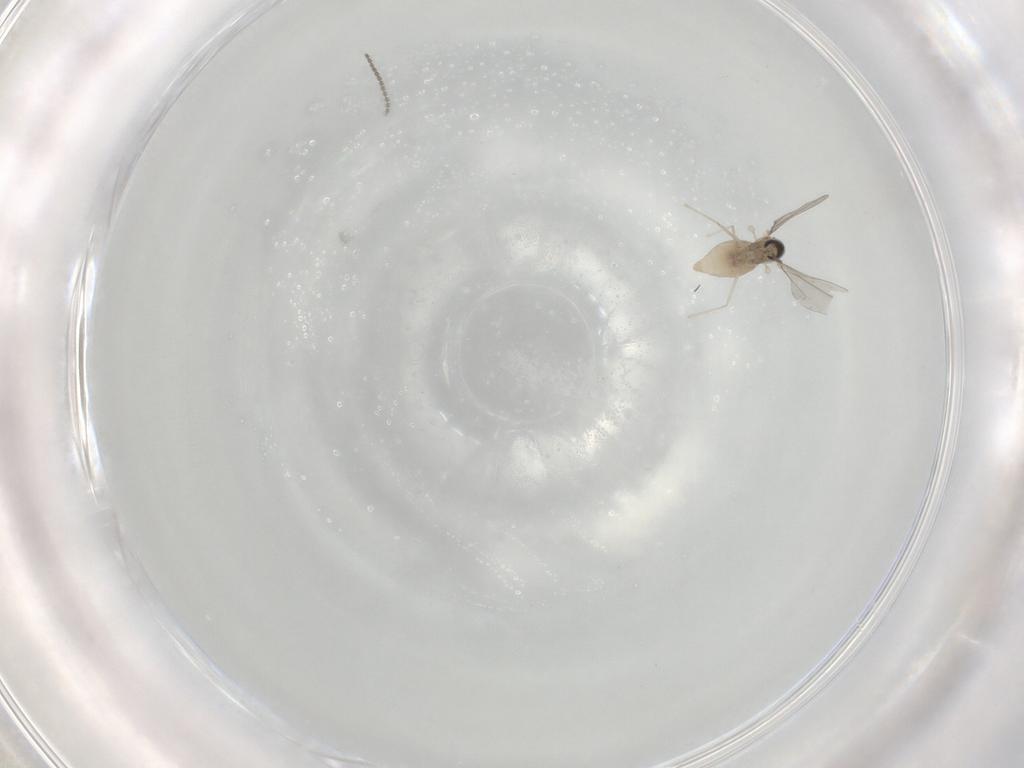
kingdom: Animalia
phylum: Arthropoda
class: Insecta
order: Diptera
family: Cecidomyiidae
